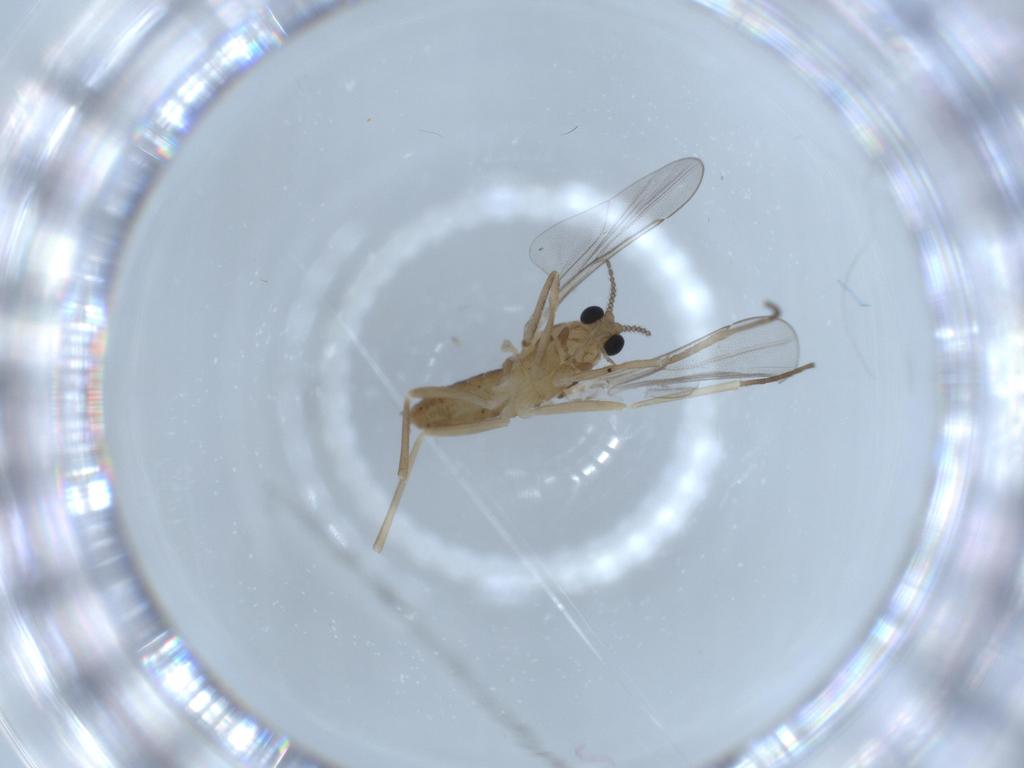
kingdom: Animalia
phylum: Arthropoda
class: Insecta
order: Diptera
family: Cecidomyiidae
